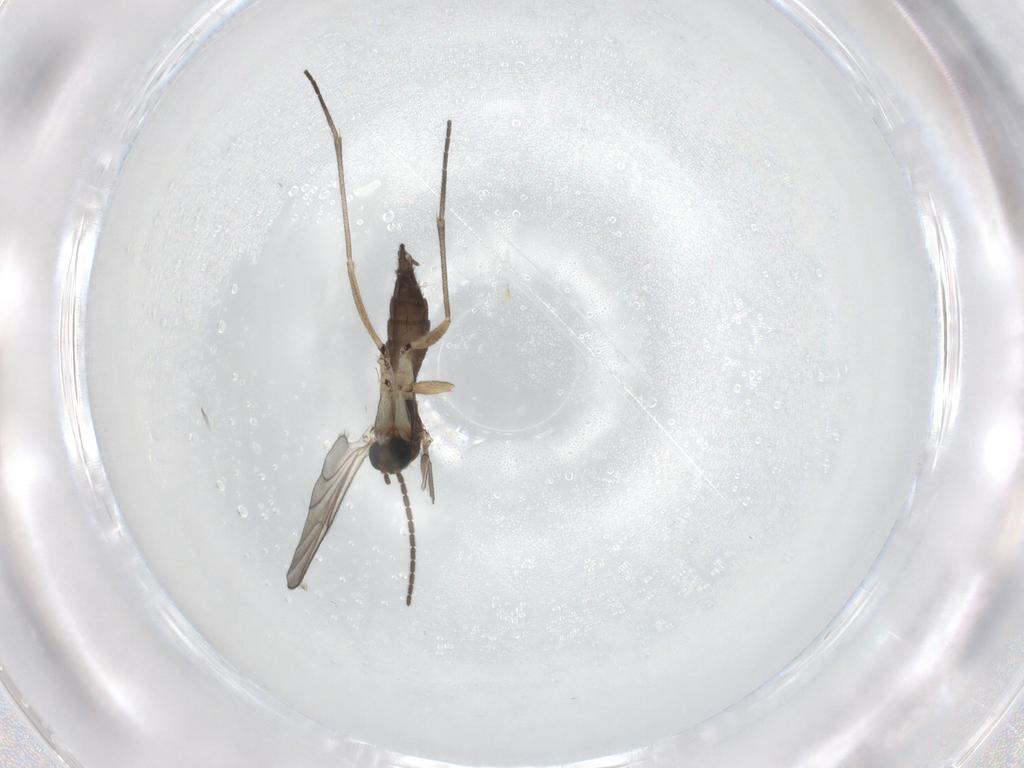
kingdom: Animalia
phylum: Arthropoda
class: Insecta
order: Diptera
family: Sciaridae
